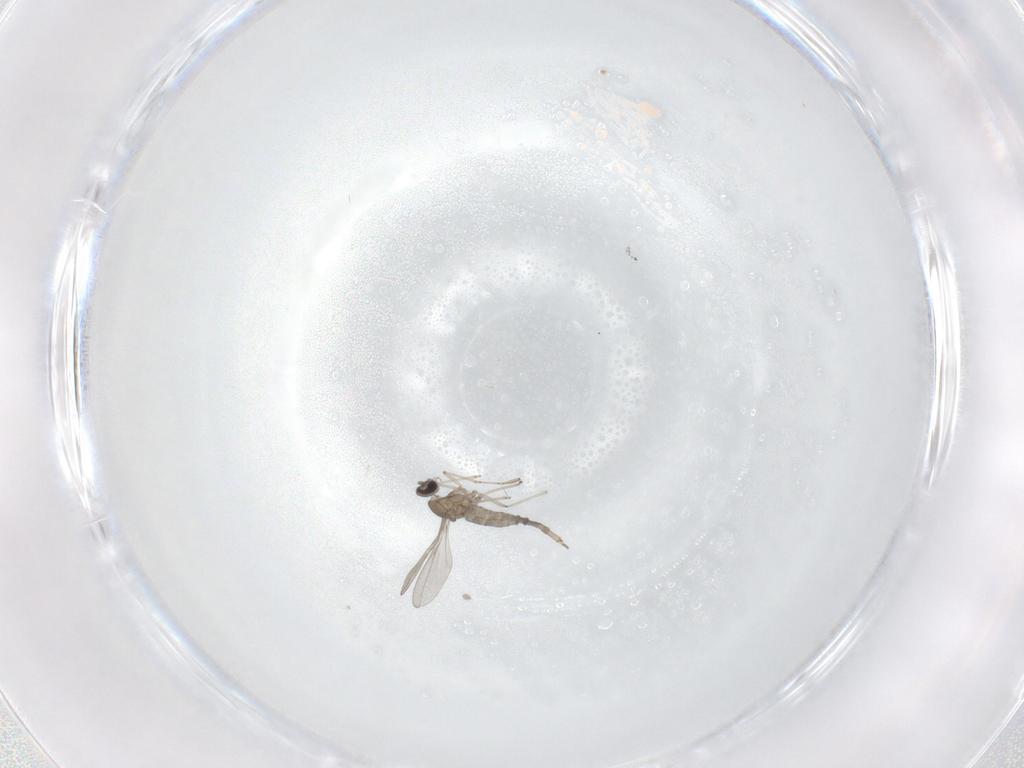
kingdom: Animalia
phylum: Arthropoda
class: Insecta
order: Diptera
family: Cecidomyiidae
